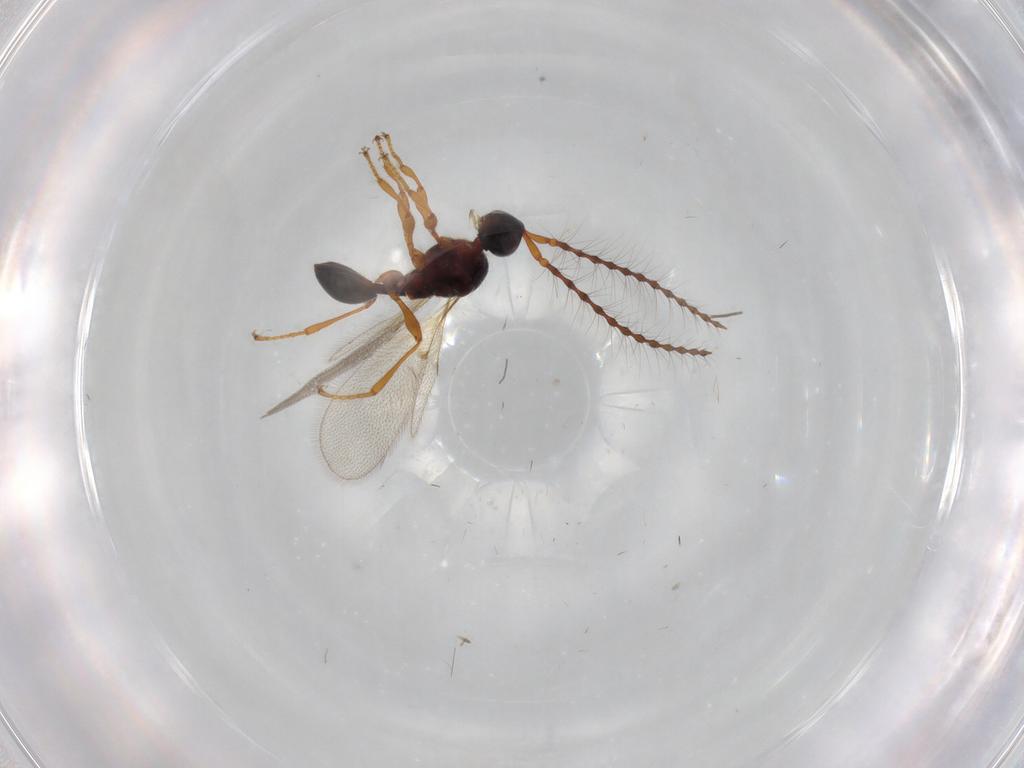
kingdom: Animalia
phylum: Arthropoda
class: Insecta
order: Hymenoptera
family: Diapriidae
